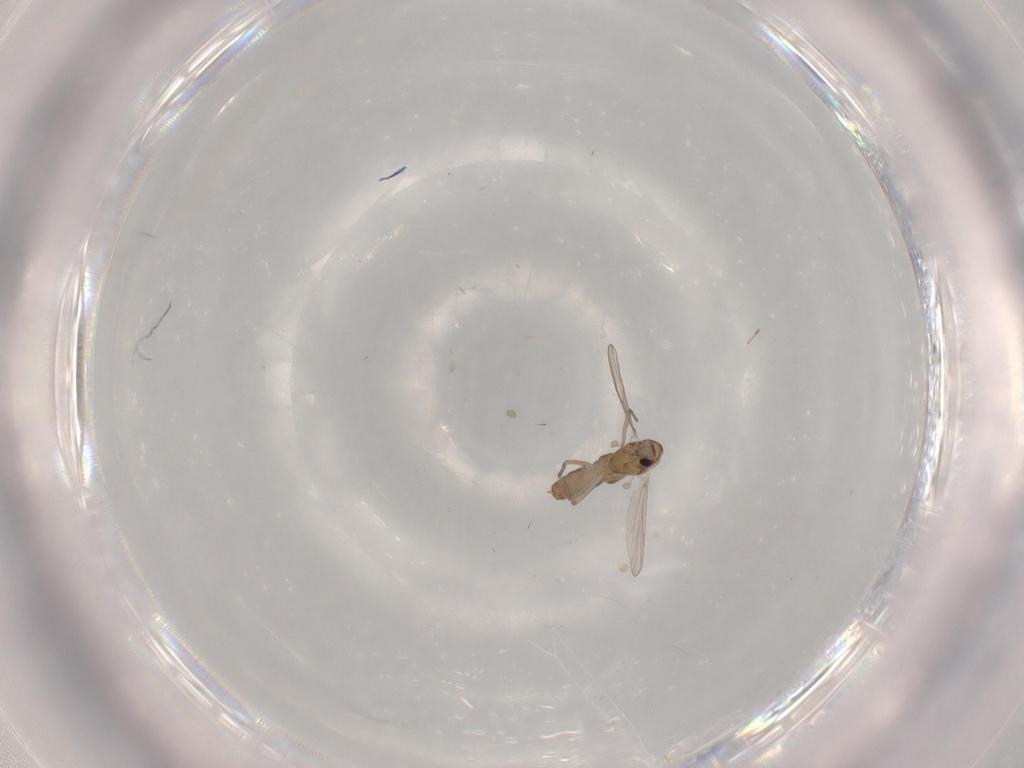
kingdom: Animalia
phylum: Arthropoda
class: Insecta
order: Diptera
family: Chironomidae
